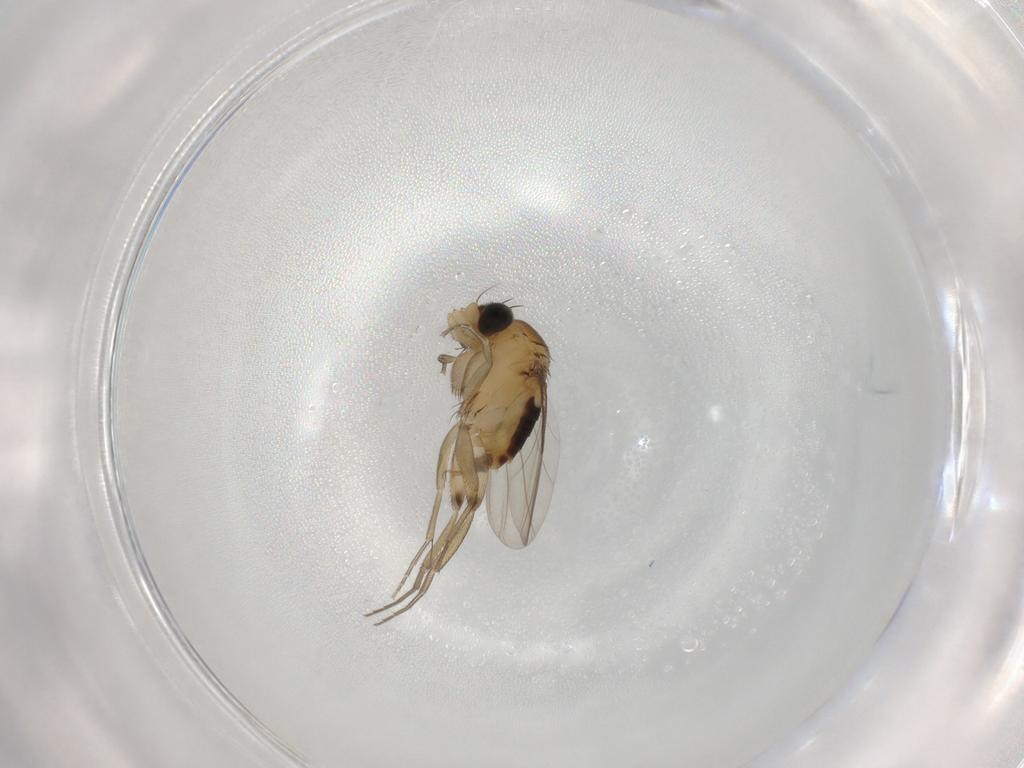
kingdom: Animalia
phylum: Arthropoda
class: Insecta
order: Diptera
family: Phoridae
